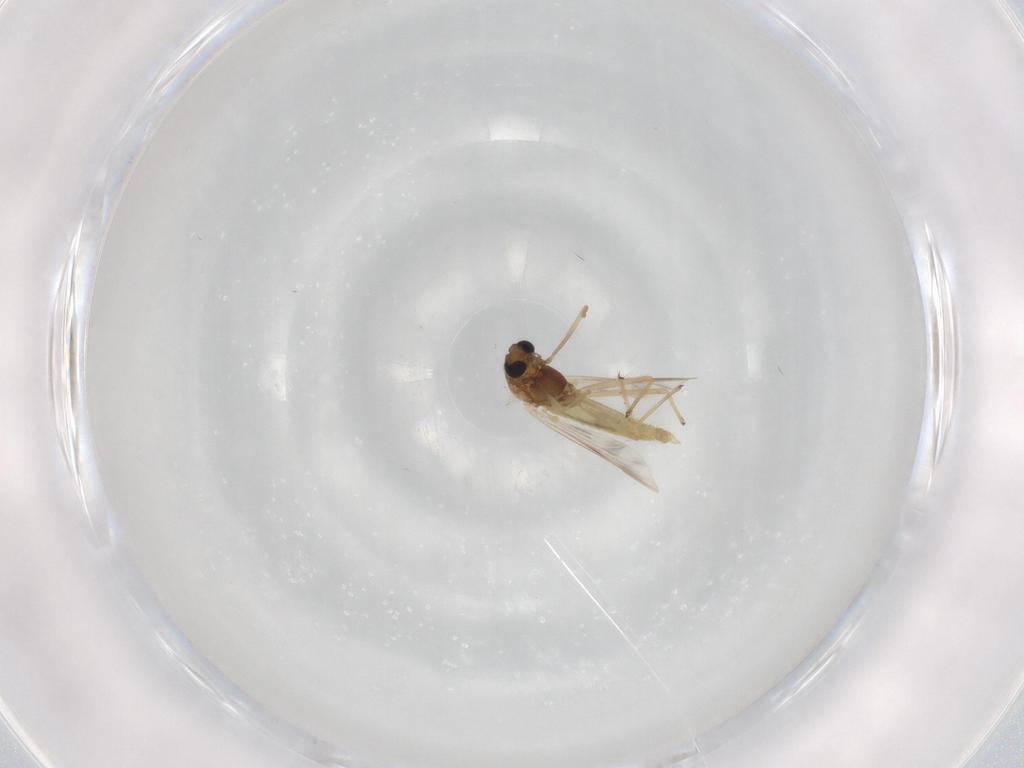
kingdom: Animalia
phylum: Arthropoda
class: Insecta
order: Diptera
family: Chironomidae
